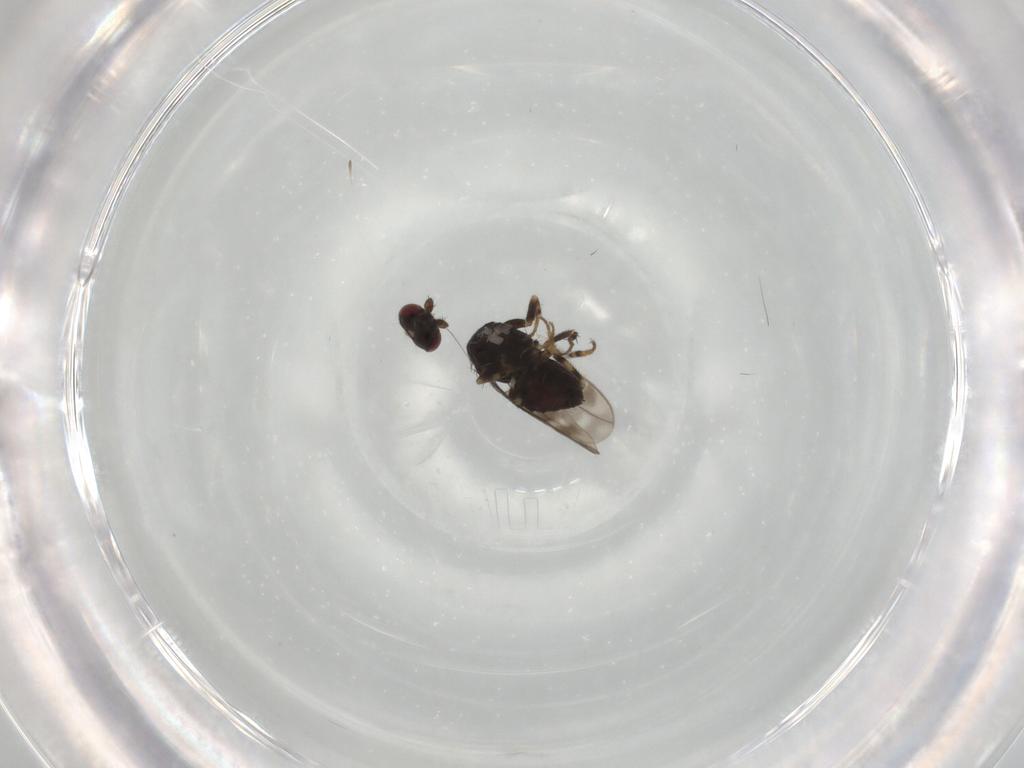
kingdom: Animalia
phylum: Arthropoda
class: Insecta
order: Diptera
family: Sphaeroceridae
